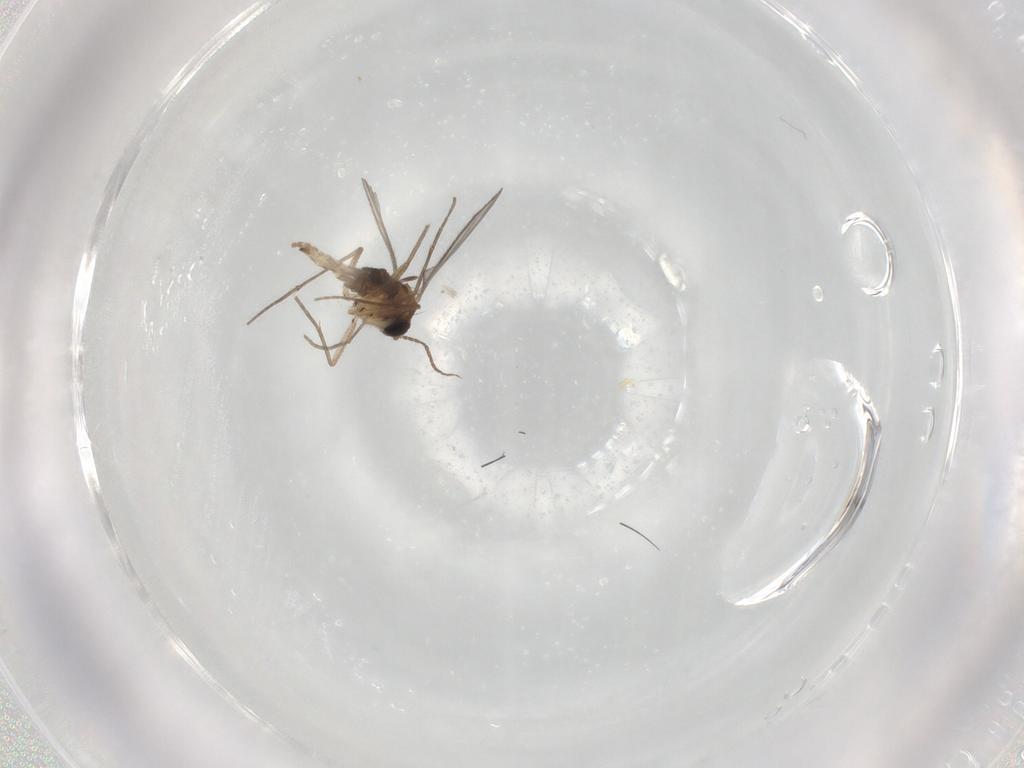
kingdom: Animalia
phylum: Arthropoda
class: Insecta
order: Diptera
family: Sciaridae
